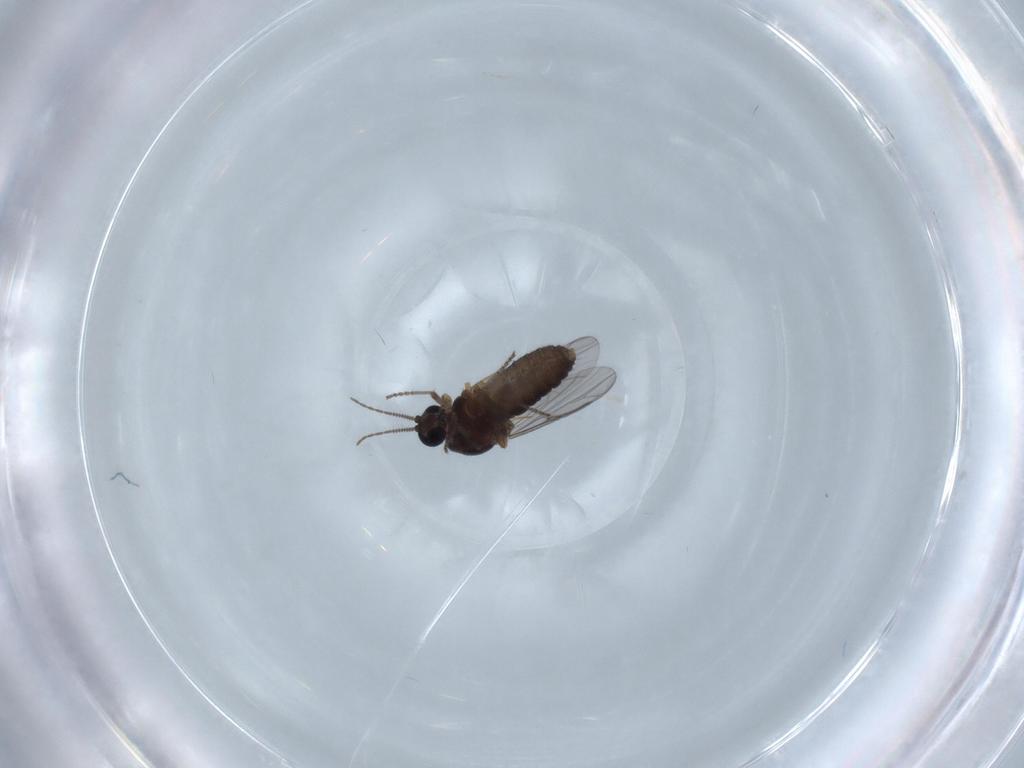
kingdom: Animalia
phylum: Arthropoda
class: Insecta
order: Diptera
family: Ceratopogonidae
